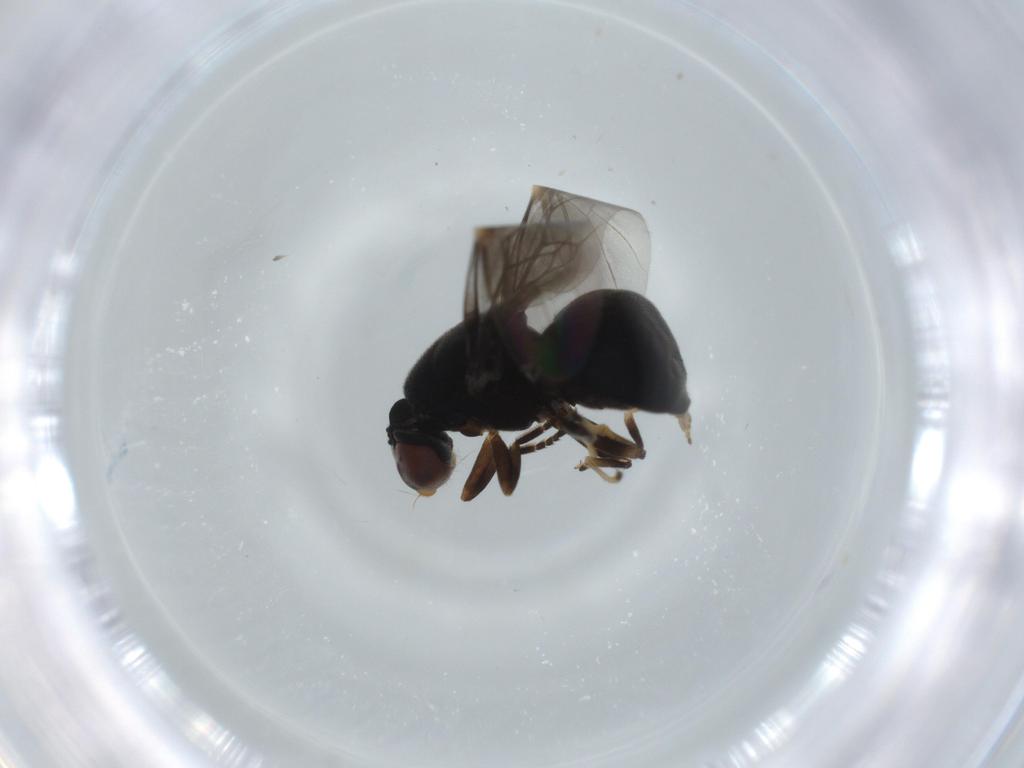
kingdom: Animalia
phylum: Arthropoda
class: Insecta
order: Diptera
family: Stratiomyidae
